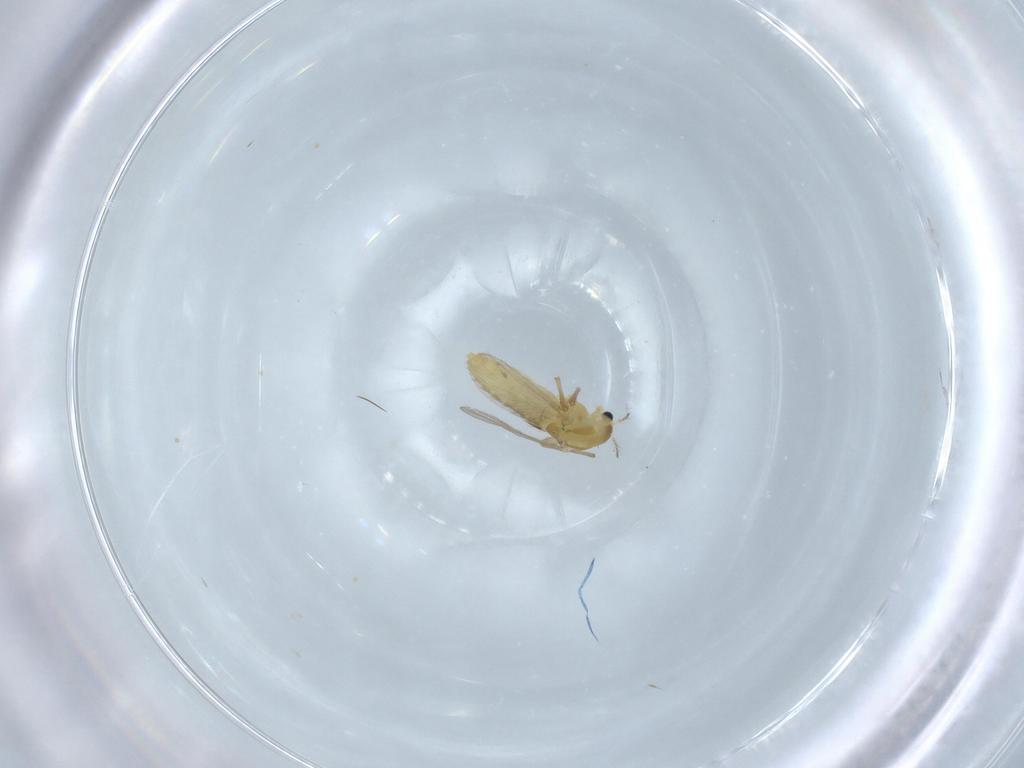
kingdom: Animalia
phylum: Arthropoda
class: Insecta
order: Diptera
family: Chironomidae
